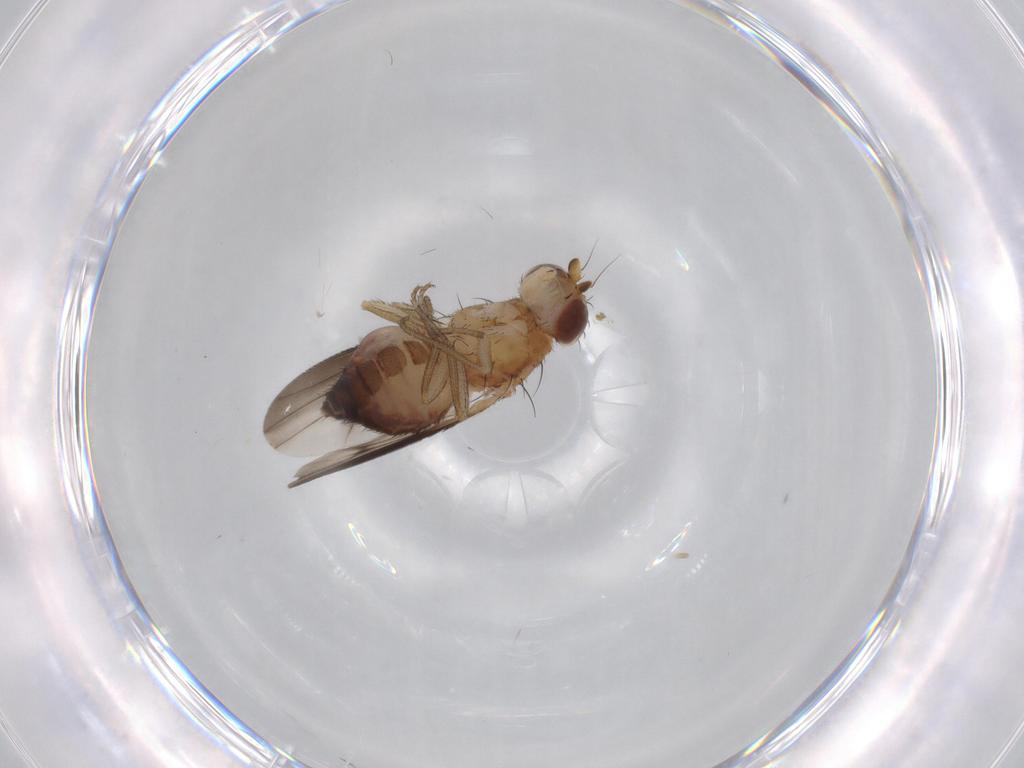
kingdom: Animalia
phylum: Arthropoda
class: Insecta
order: Diptera
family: Heleomyzidae
